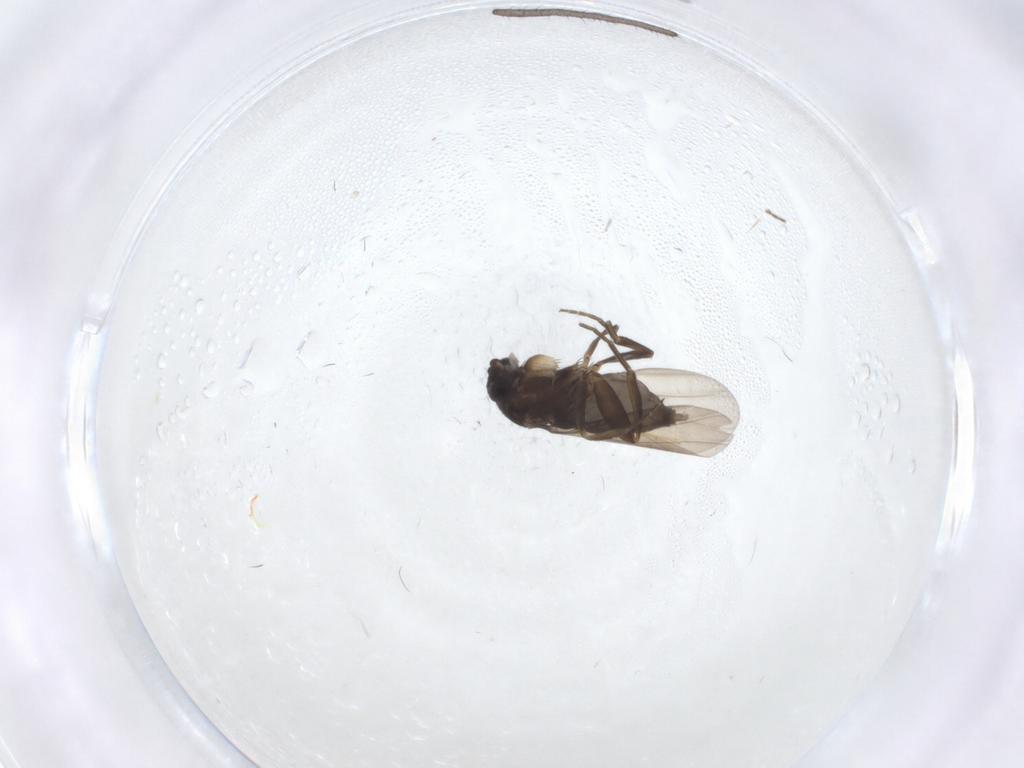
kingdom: Animalia
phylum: Arthropoda
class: Insecta
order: Diptera
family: Phoridae
